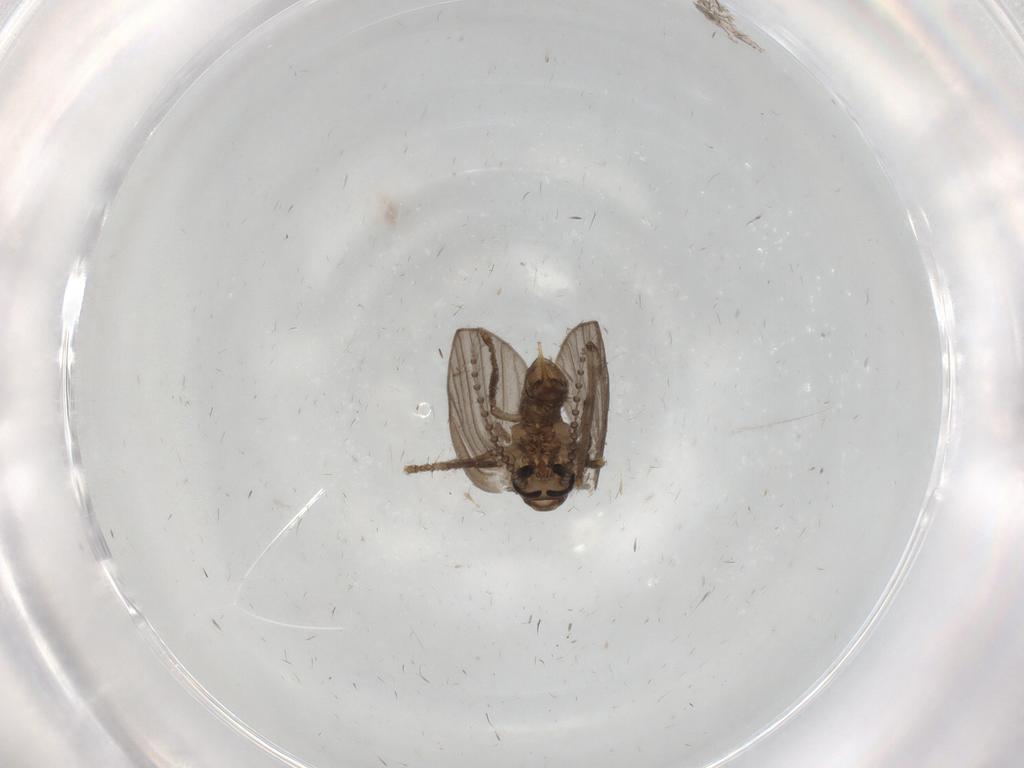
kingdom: Animalia
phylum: Arthropoda
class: Insecta
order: Diptera
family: Psychodidae
